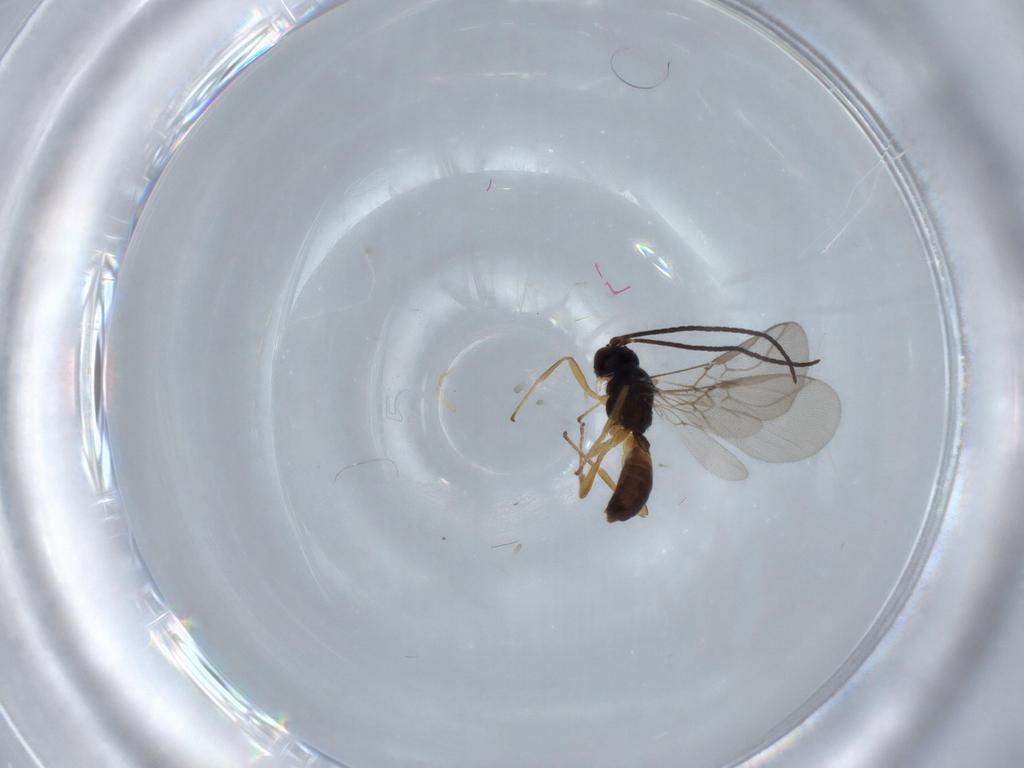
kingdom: Animalia
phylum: Arthropoda
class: Insecta
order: Hymenoptera
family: Braconidae
